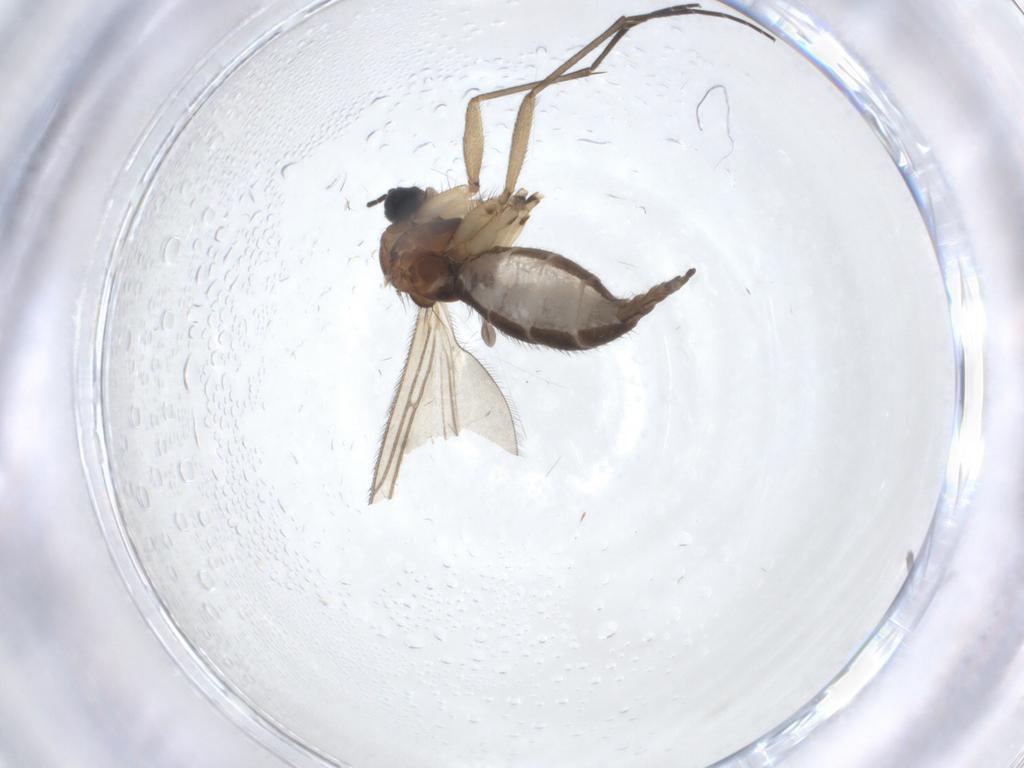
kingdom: Animalia
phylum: Arthropoda
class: Insecta
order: Diptera
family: Sciaridae
